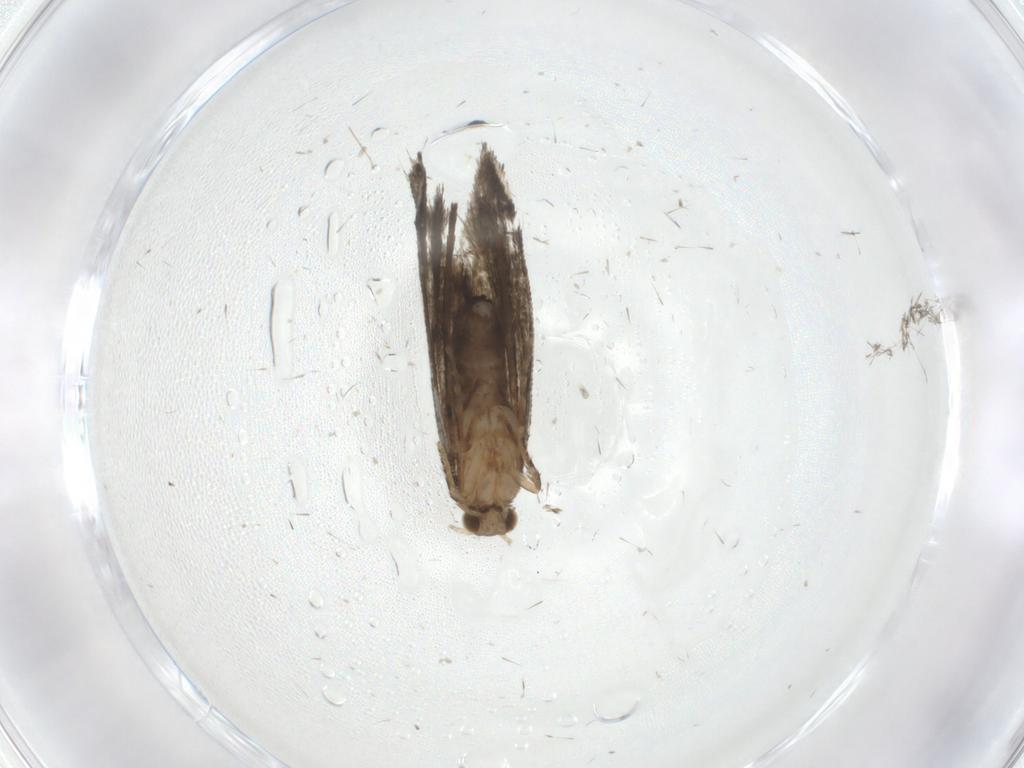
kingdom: Animalia
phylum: Arthropoda
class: Insecta
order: Lepidoptera
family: Tineidae
